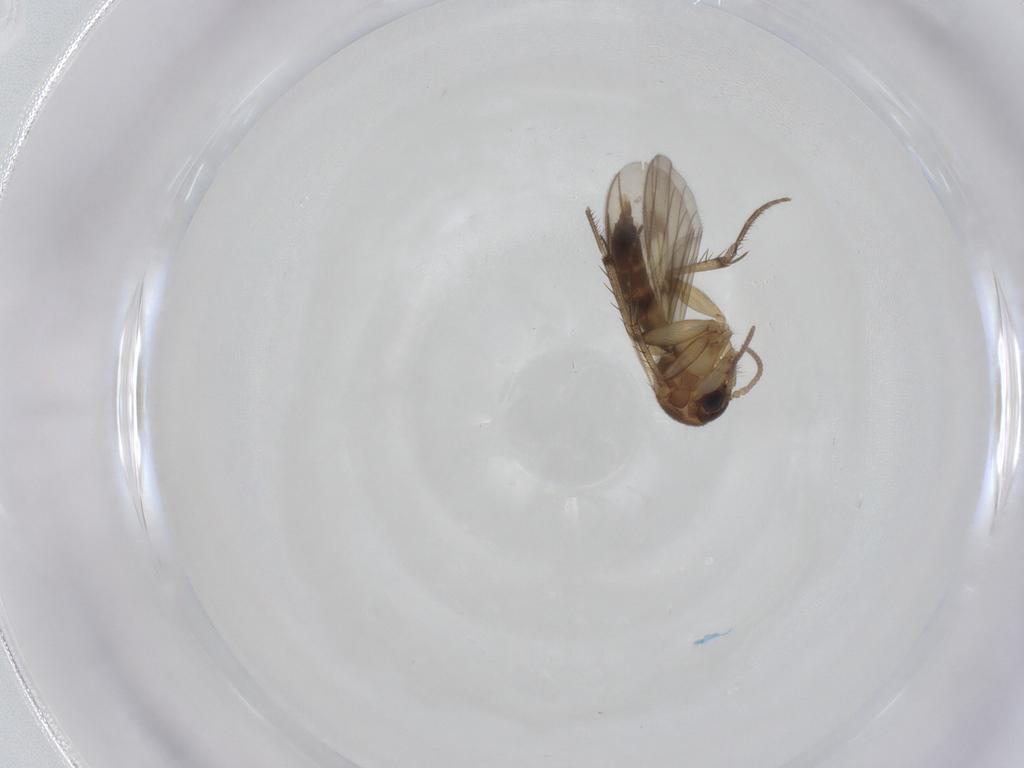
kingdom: Animalia
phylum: Arthropoda
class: Insecta
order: Diptera
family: Mycetophilidae
